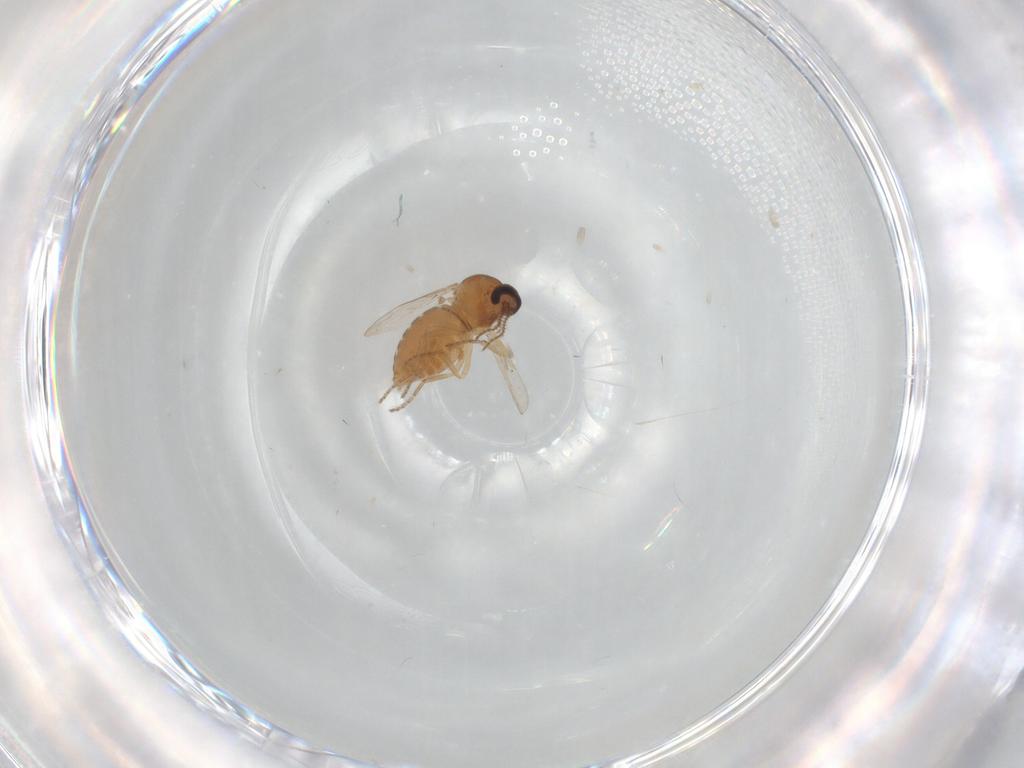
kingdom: Animalia
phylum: Arthropoda
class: Insecta
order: Diptera
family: Ceratopogonidae
